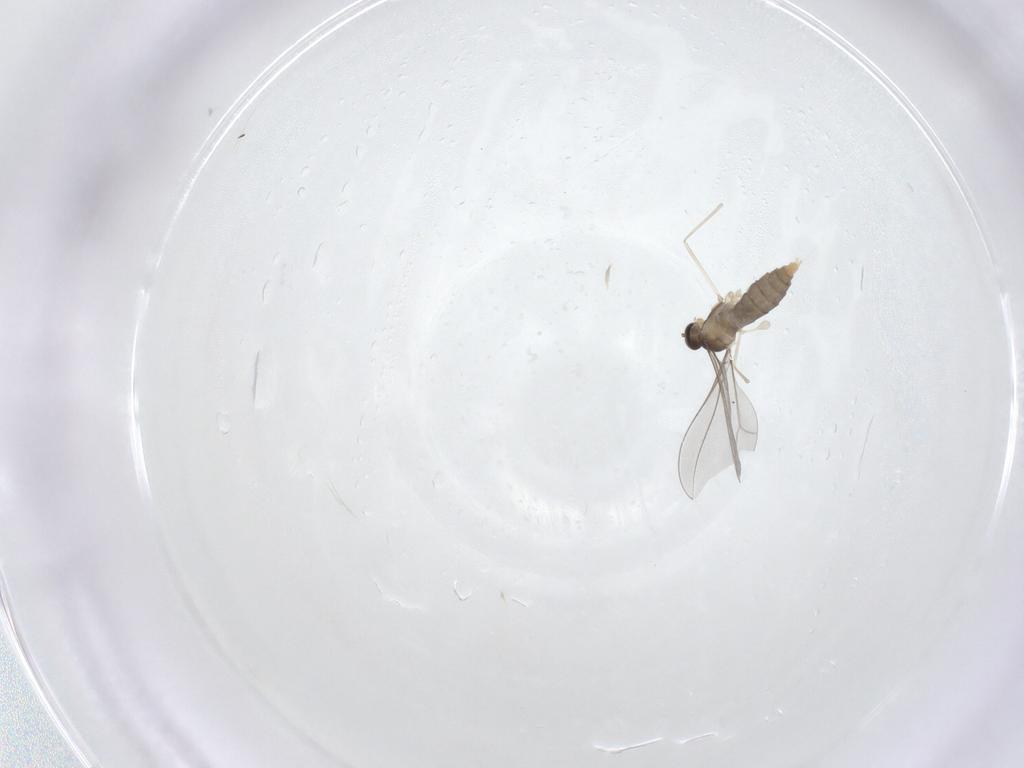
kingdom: Animalia
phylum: Arthropoda
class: Insecta
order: Diptera
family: Cecidomyiidae
